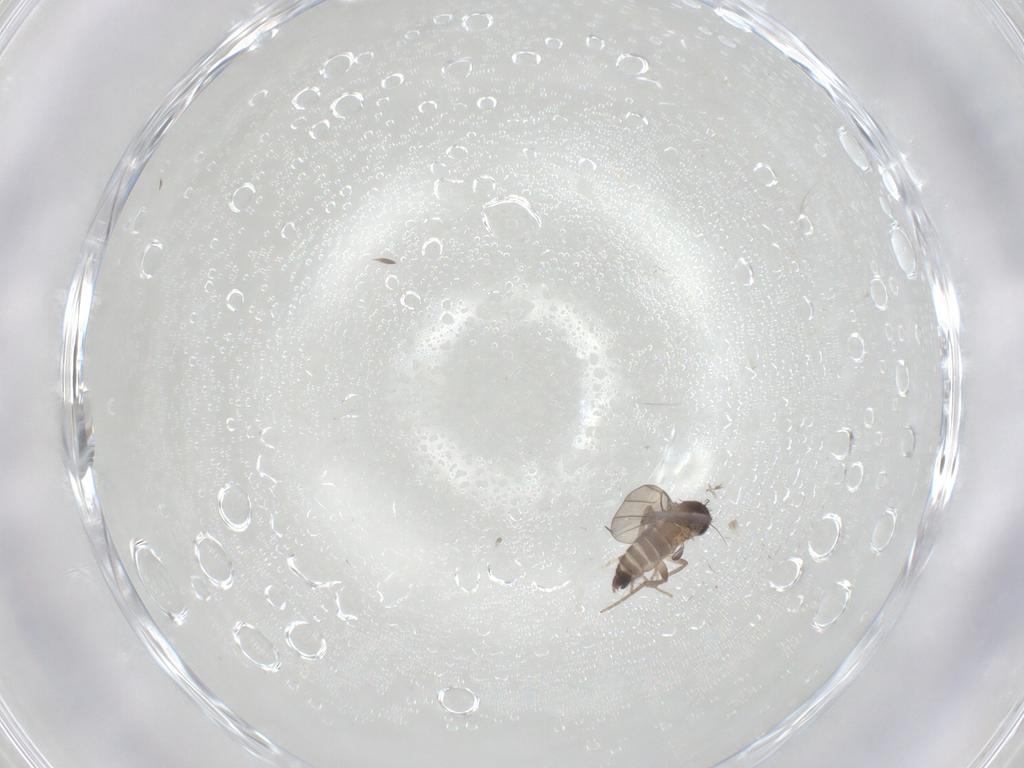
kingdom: Animalia
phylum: Arthropoda
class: Insecta
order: Diptera
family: Cecidomyiidae
